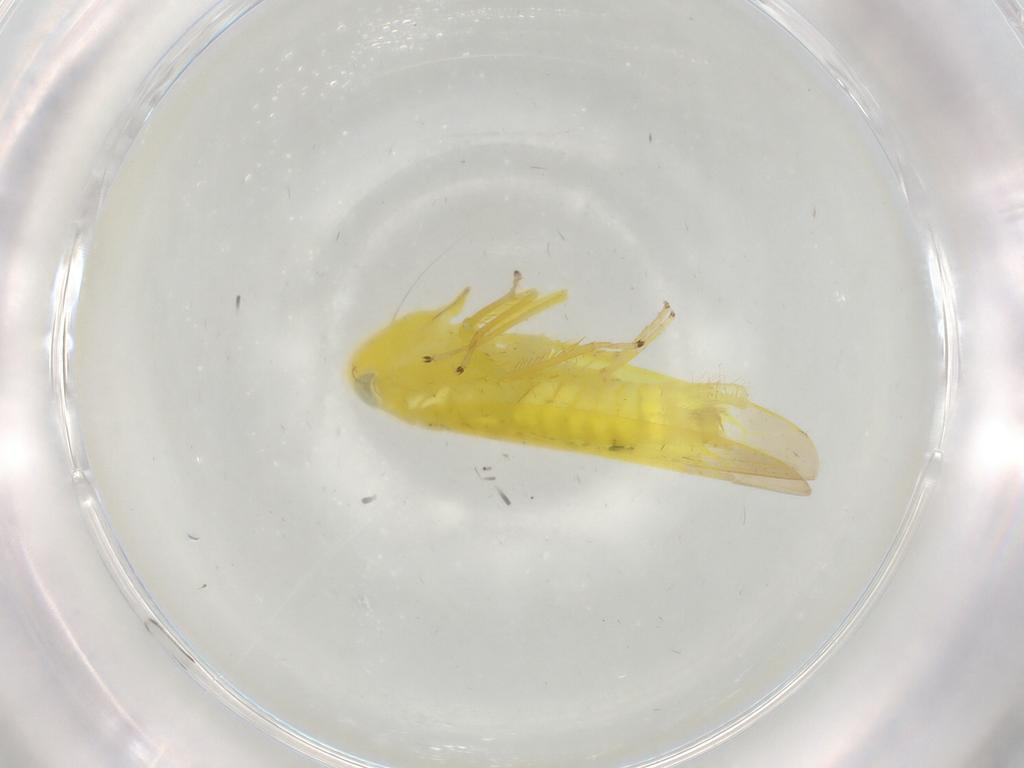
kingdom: Animalia
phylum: Arthropoda
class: Insecta
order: Hemiptera
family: Cicadellidae
